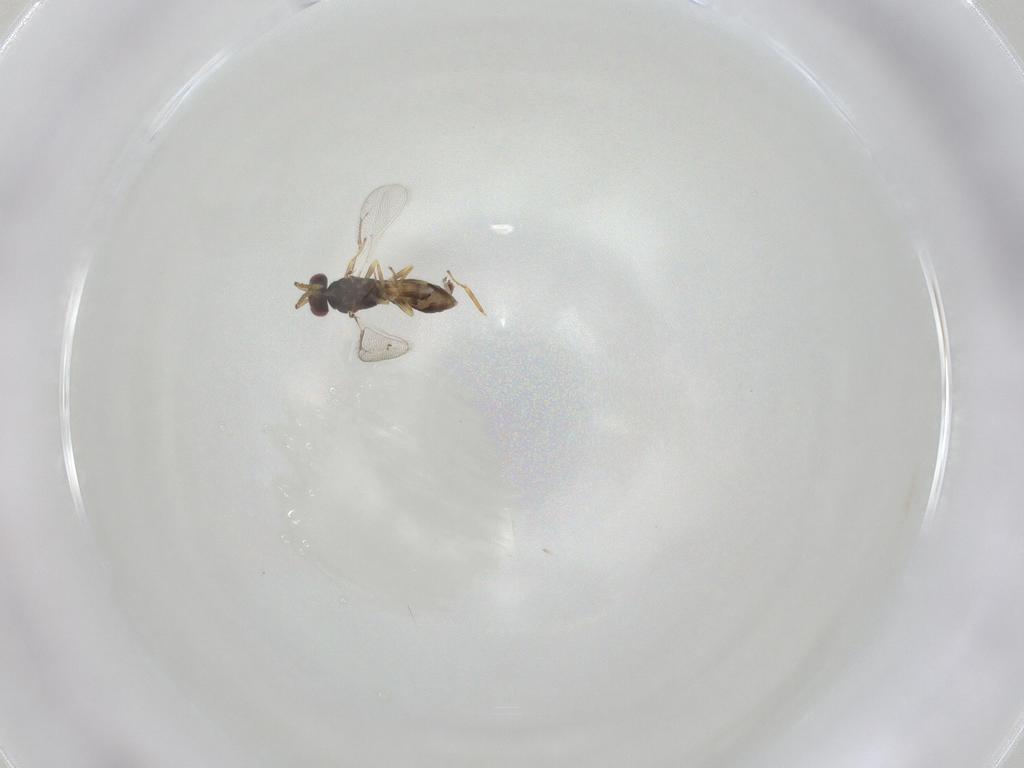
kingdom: Animalia
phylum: Arthropoda
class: Insecta
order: Hymenoptera
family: Eulophidae
